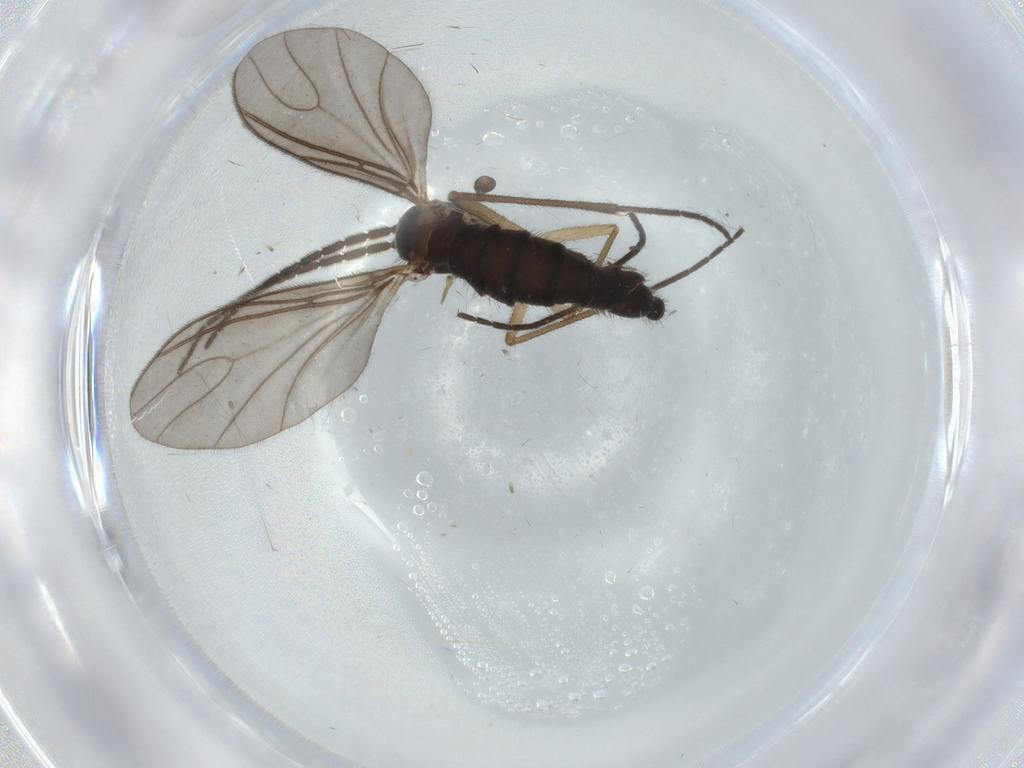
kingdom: Animalia
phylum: Arthropoda
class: Insecta
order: Diptera
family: Sciaridae
